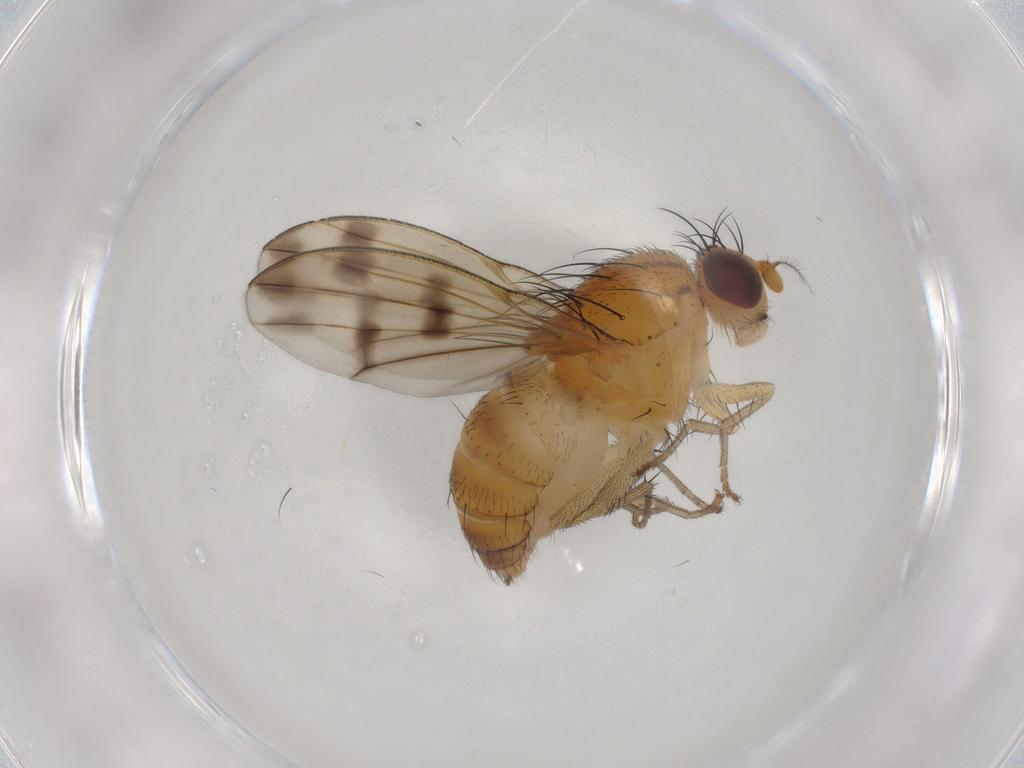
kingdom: Animalia
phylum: Arthropoda
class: Insecta
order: Diptera
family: Lauxaniidae
